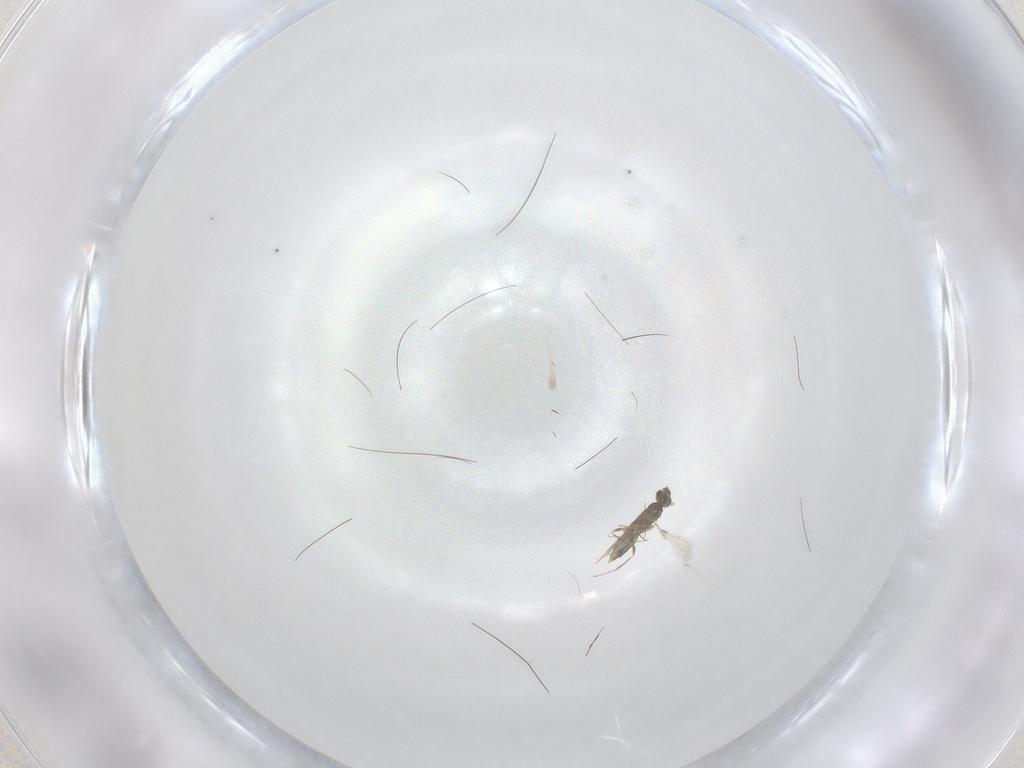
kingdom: Animalia
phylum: Arthropoda
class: Insecta
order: Hymenoptera
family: Mymaridae
